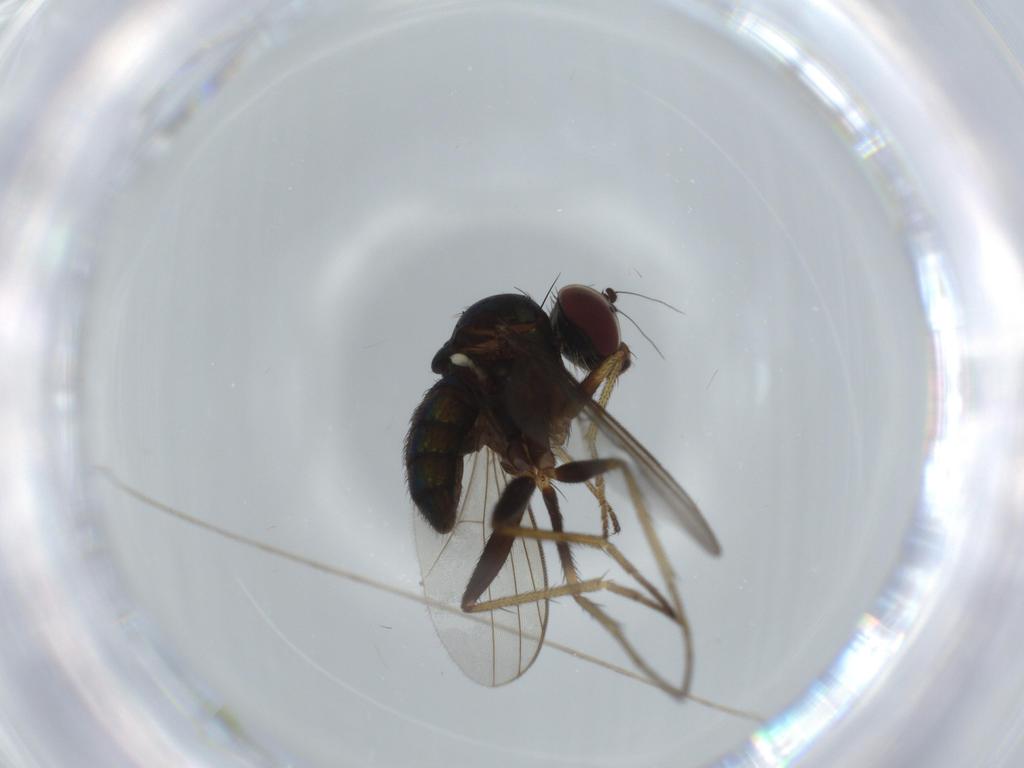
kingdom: Animalia
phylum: Arthropoda
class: Insecta
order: Diptera
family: Dolichopodidae
